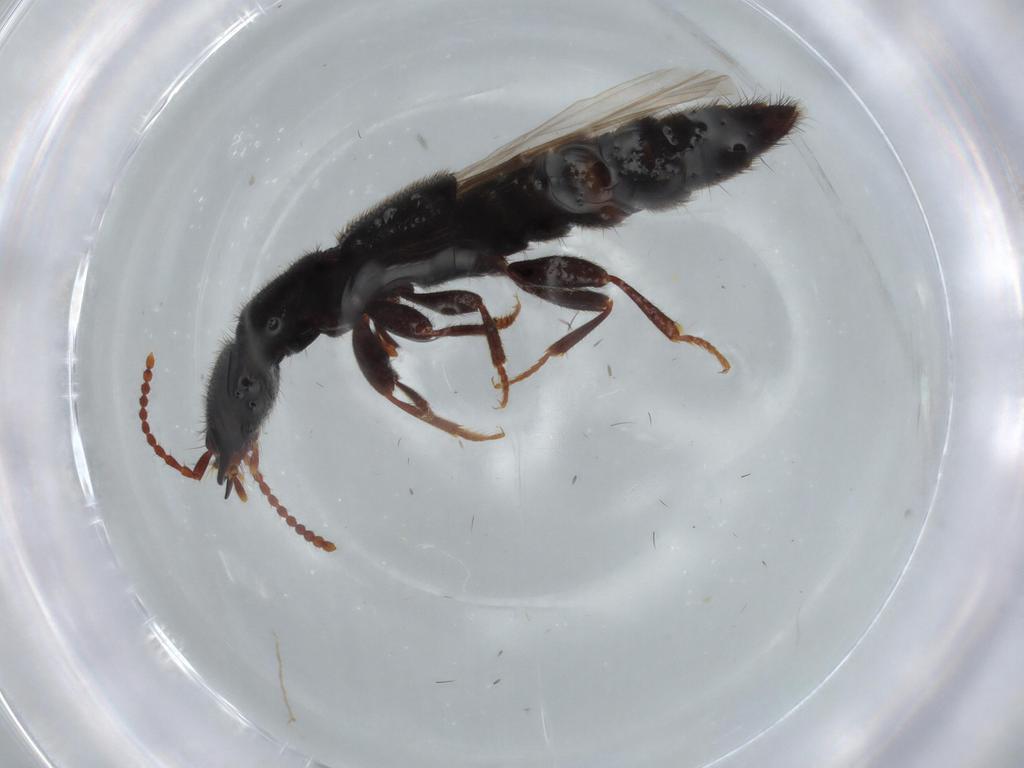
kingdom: Animalia
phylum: Arthropoda
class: Insecta
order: Coleoptera
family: Staphylinidae
